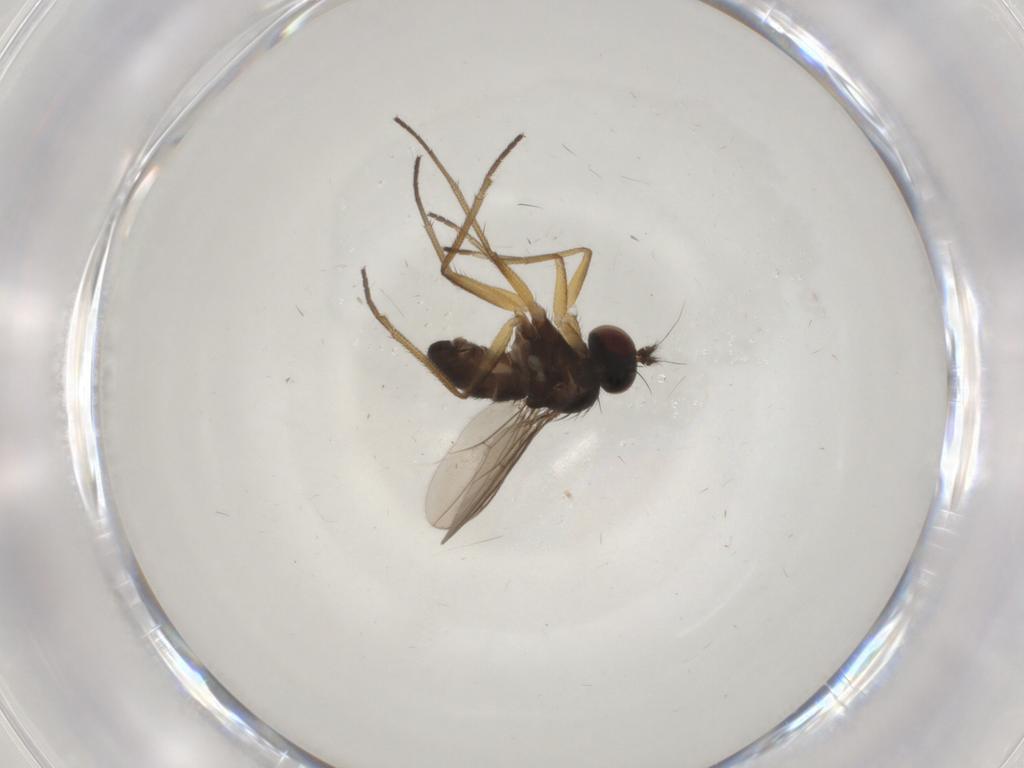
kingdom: Animalia
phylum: Arthropoda
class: Insecta
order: Diptera
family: Dolichopodidae
